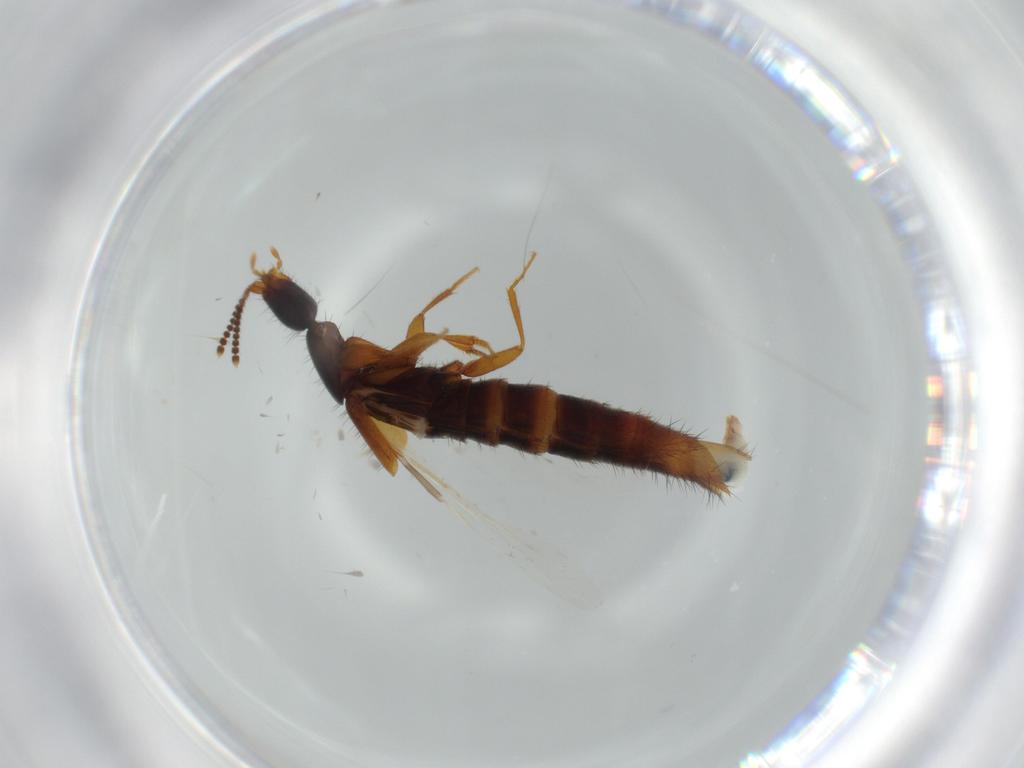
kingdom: Animalia
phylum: Arthropoda
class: Insecta
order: Coleoptera
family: Staphylinidae
